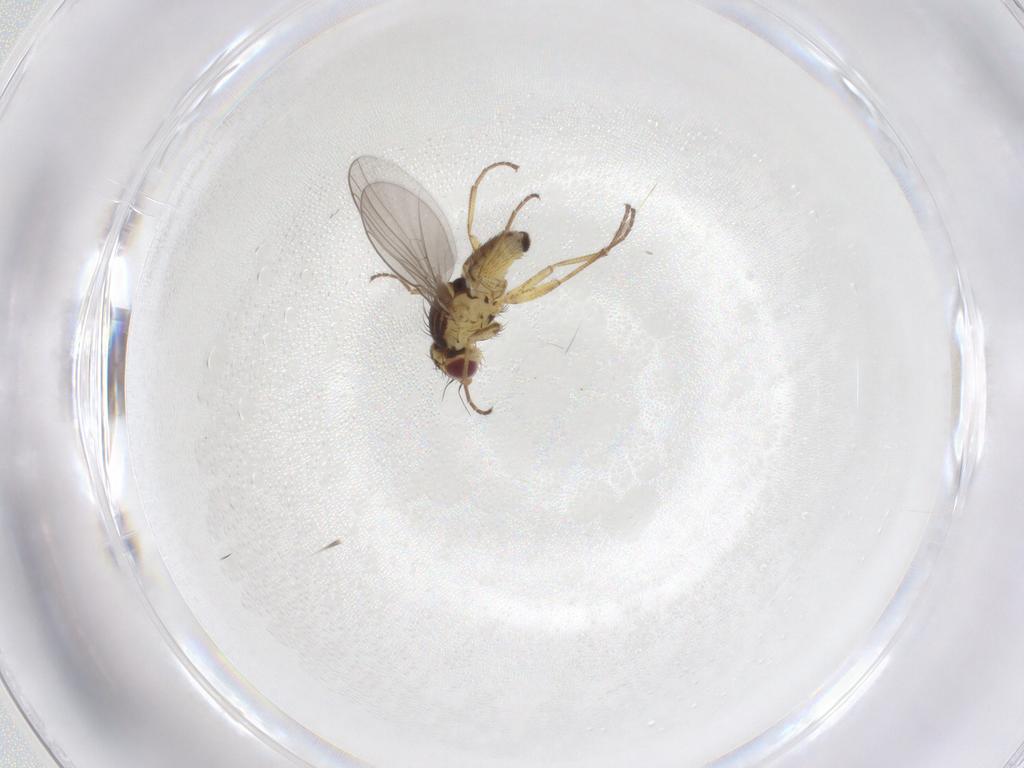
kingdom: Animalia
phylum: Arthropoda
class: Insecta
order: Diptera
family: Agromyzidae
